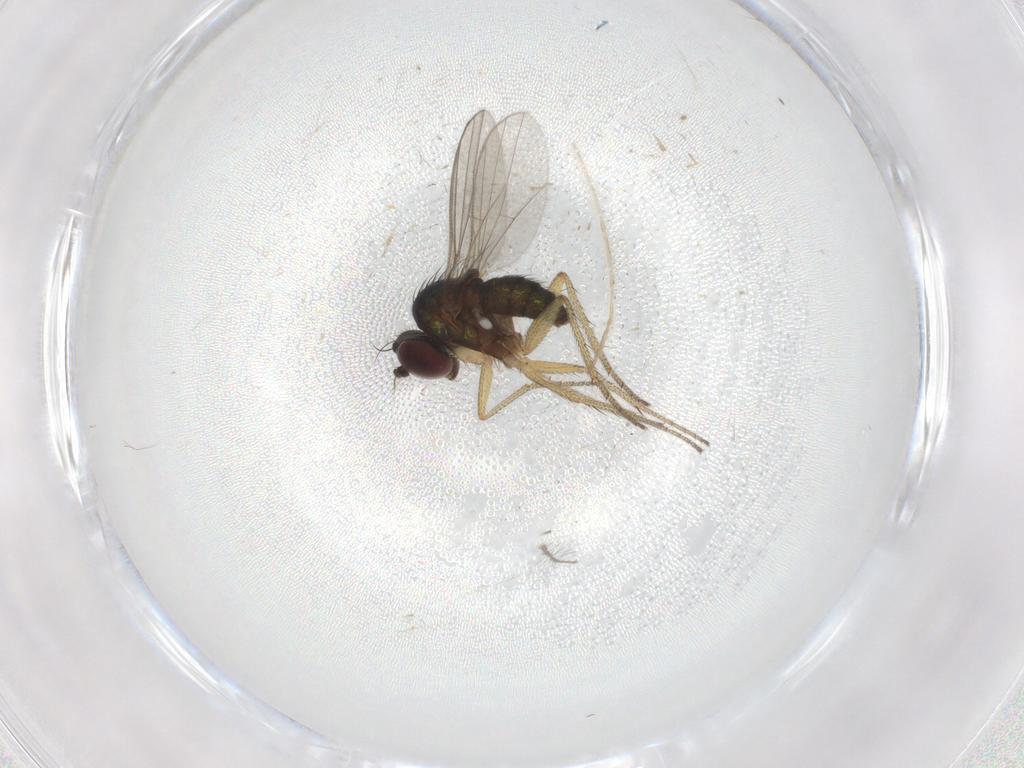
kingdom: Animalia
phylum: Arthropoda
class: Insecta
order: Diptera
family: Chironomidae
